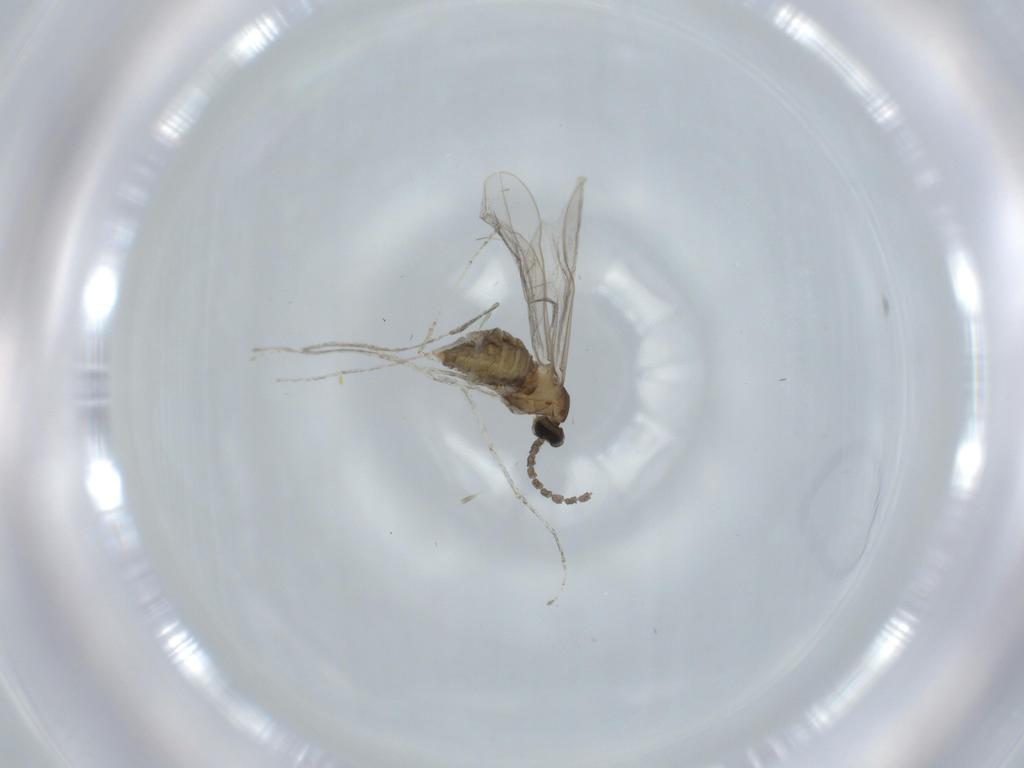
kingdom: Animalia
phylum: Arthropoda
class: Insecta
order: Diptera
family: Cecidomyiidae
